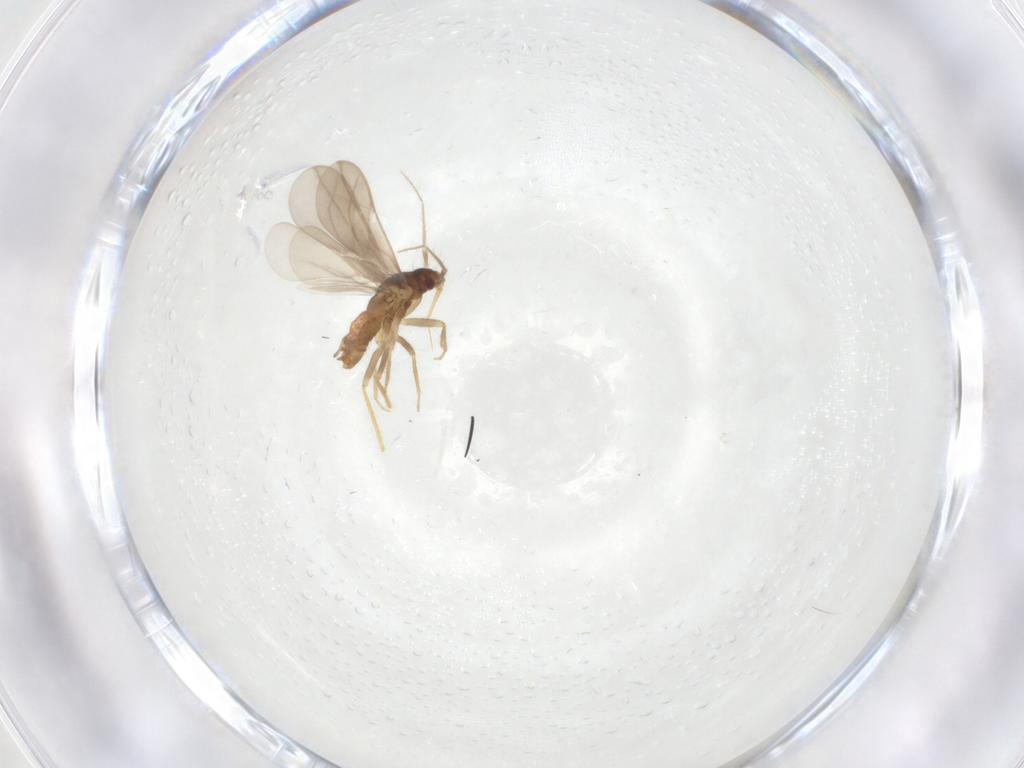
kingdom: Animalia
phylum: Arthropoda
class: Insecta
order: Hemiptera
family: Ceratocombidae
